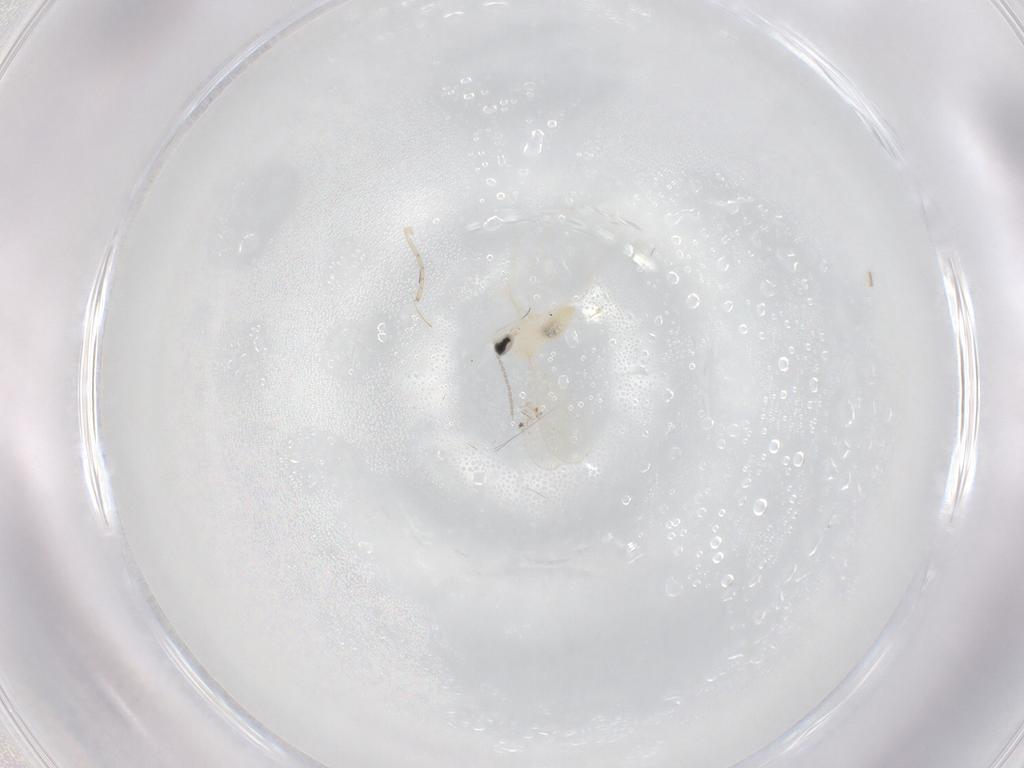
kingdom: Animalia
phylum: Arthropoda
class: Insecta
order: Diptera
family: Cecidomyiidae
